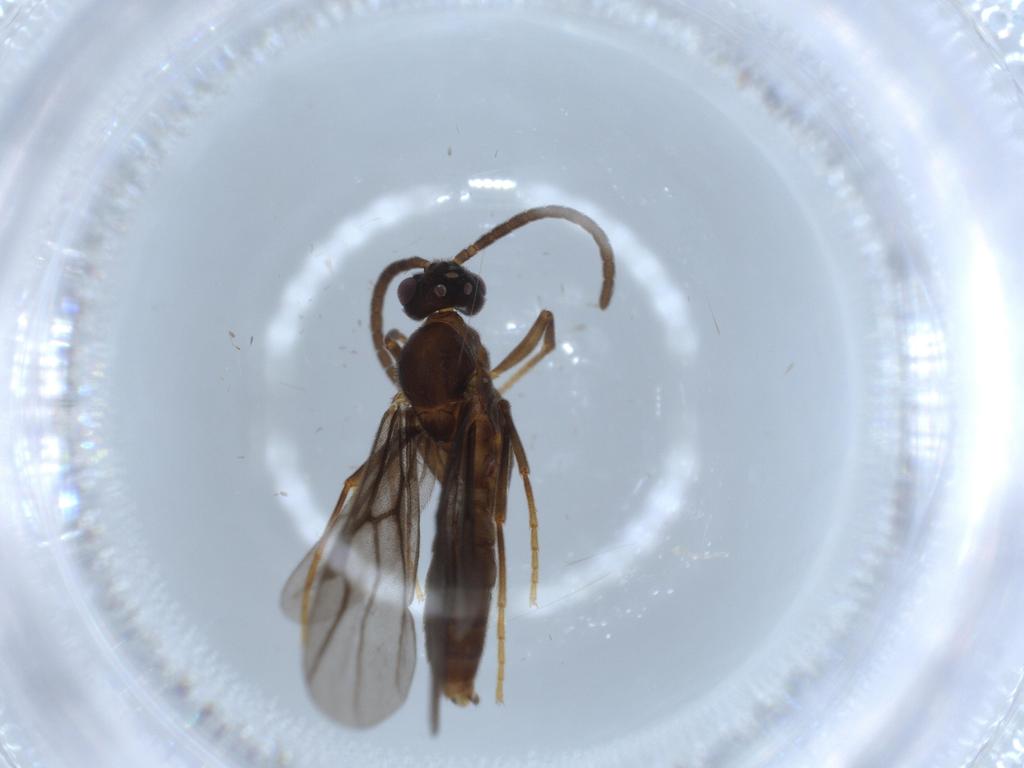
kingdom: Animalia
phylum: Arthropoda
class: Insecta
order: Hymenoptera
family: Formicidae
